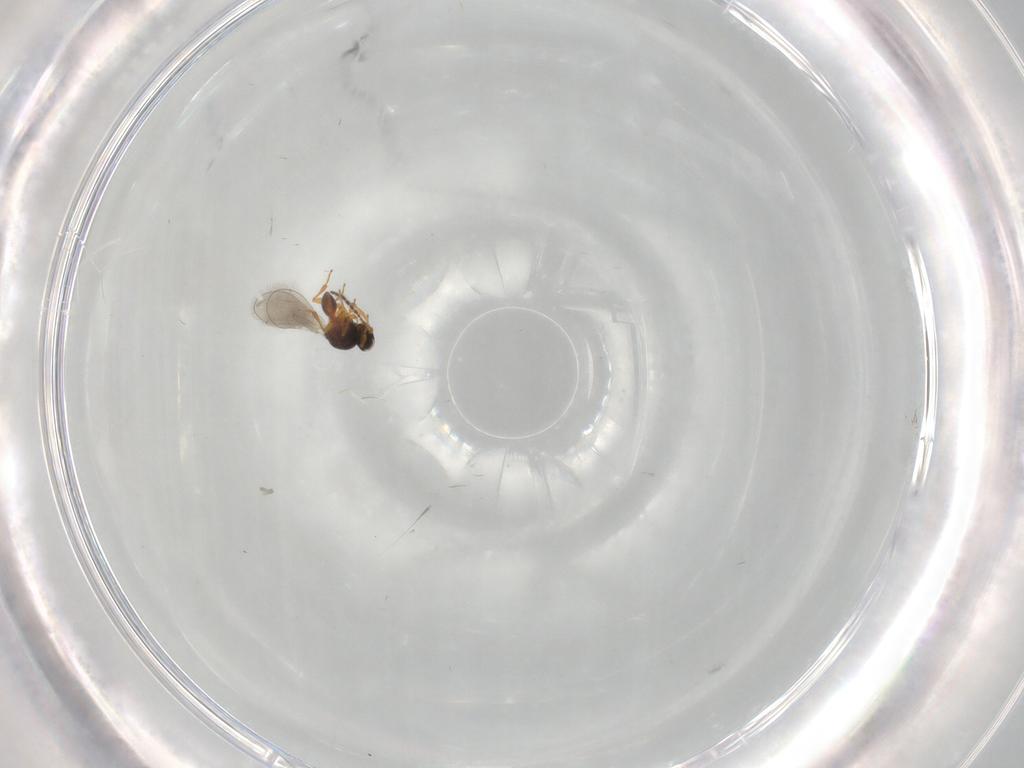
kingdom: Animalia
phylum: Arthropoda
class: Insecta
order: Hymenoptera
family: Platygastridae
